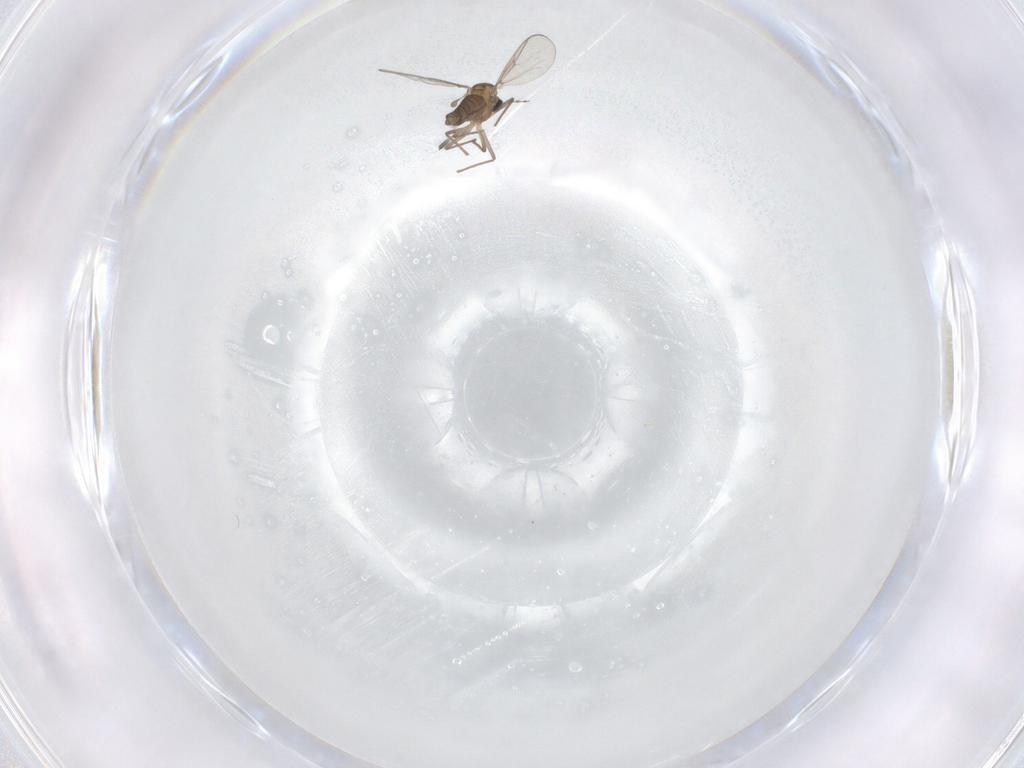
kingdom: Animalia
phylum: Arthropoda
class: Insecta
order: Diptera
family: Chironomidae
